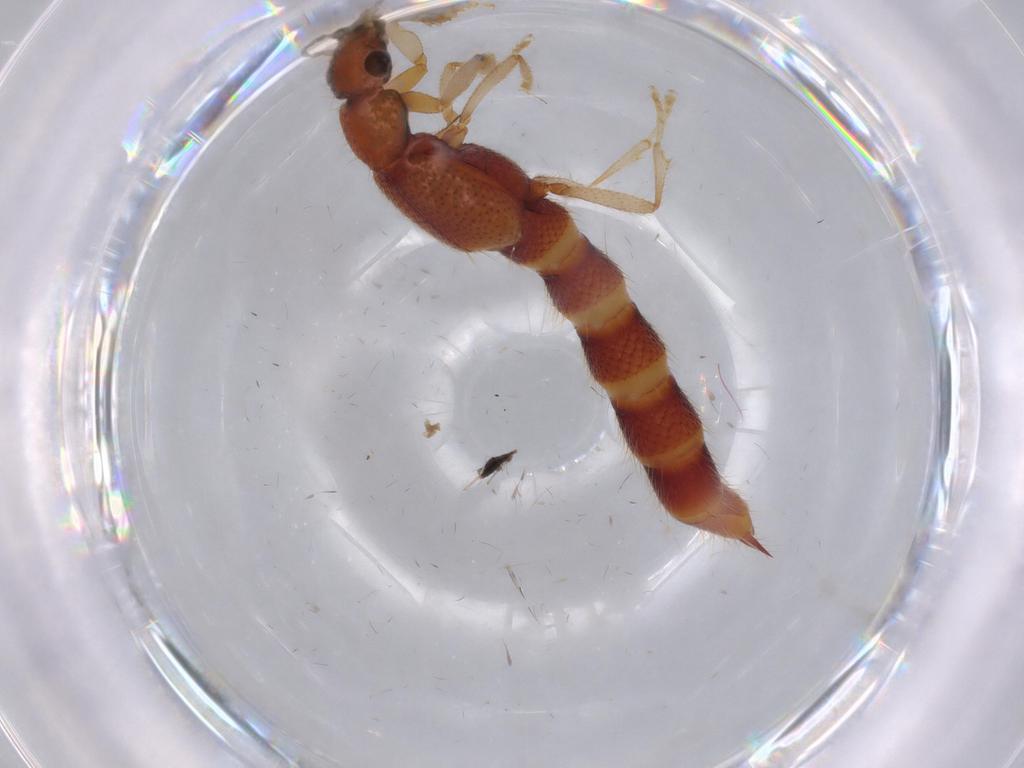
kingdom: Animalia
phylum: Arthropoda
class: Insecta
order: Coleoptera
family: Staphylinidae
